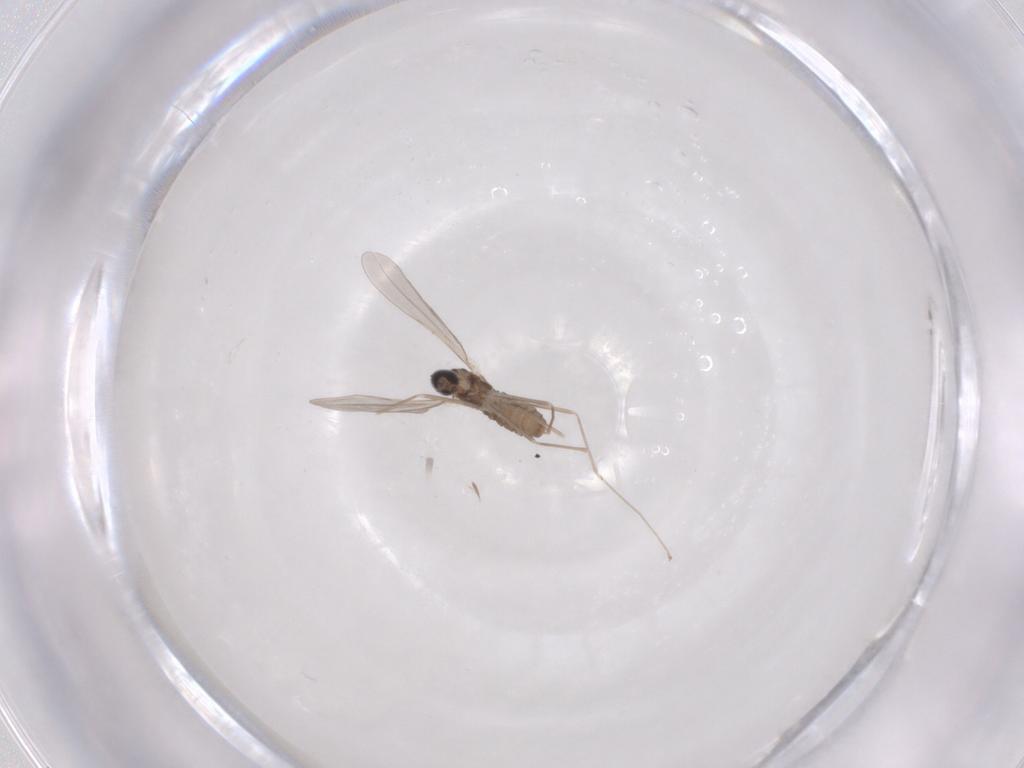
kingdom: Animalia
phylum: Arthropoda
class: Insecta
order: Diptera
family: Cecidomyiidae
